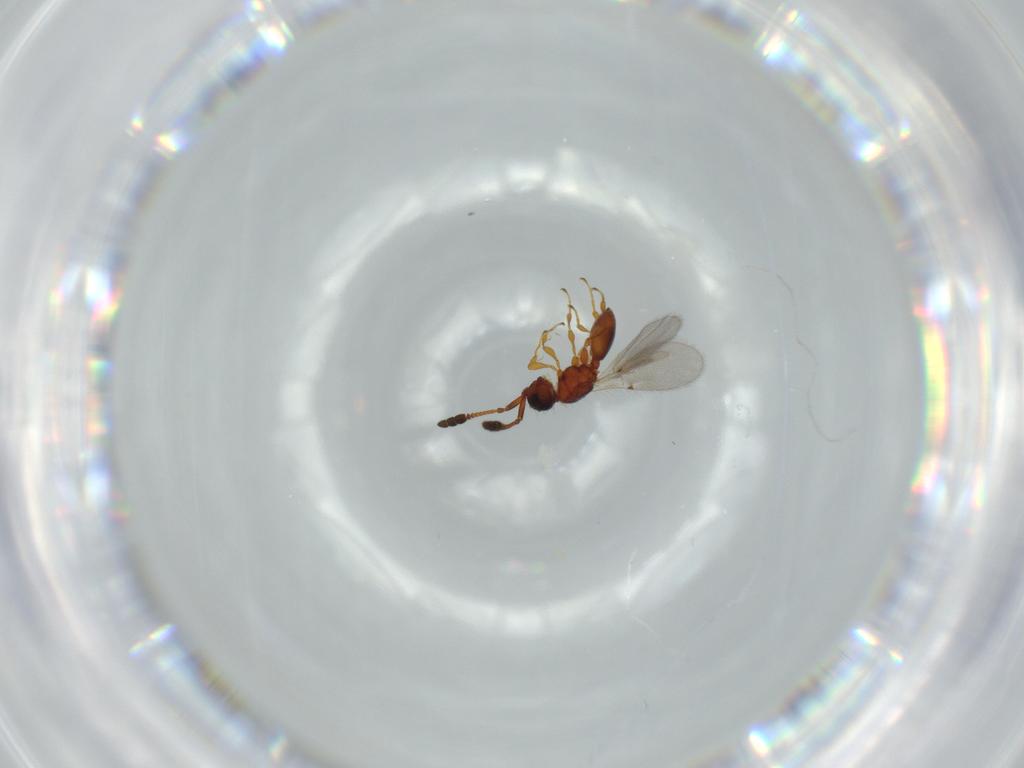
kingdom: Animalia
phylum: Arthropoda
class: Insecta
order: Hymenoptera
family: Diapriidae
